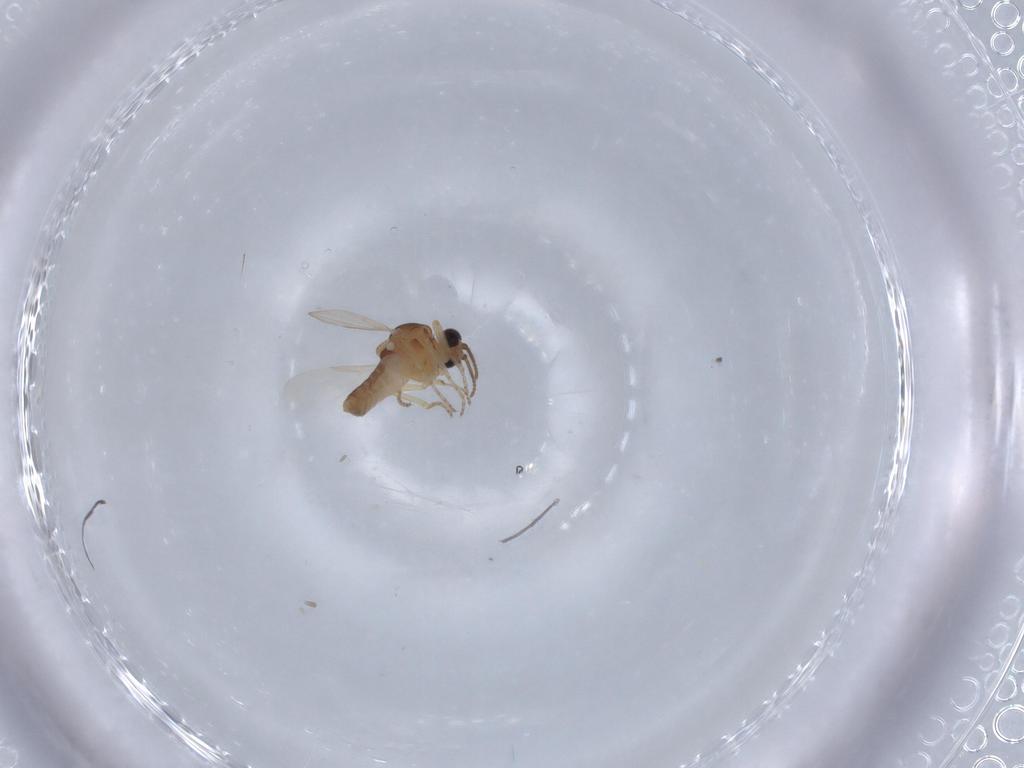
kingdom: Animalia
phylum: Arthropoda
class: Insecta
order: Diptera
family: Ceratopogonidae
